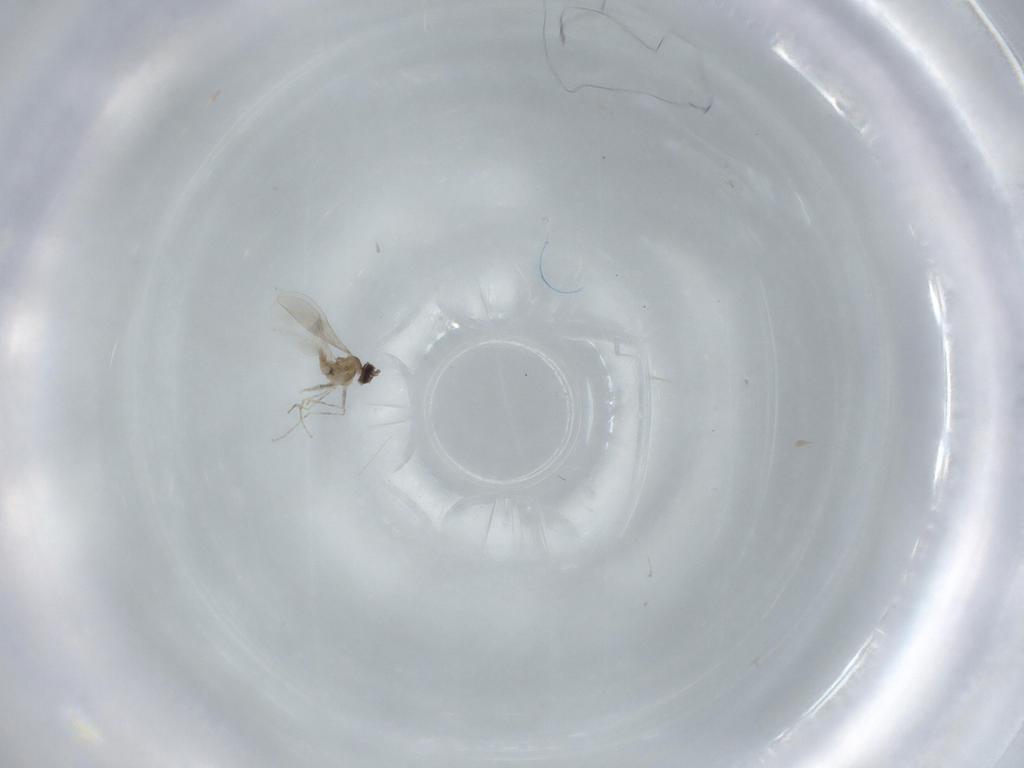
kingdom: Animalia
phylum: Arthropoda
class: Insecta
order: Diptera
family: Cecidomyiidae
